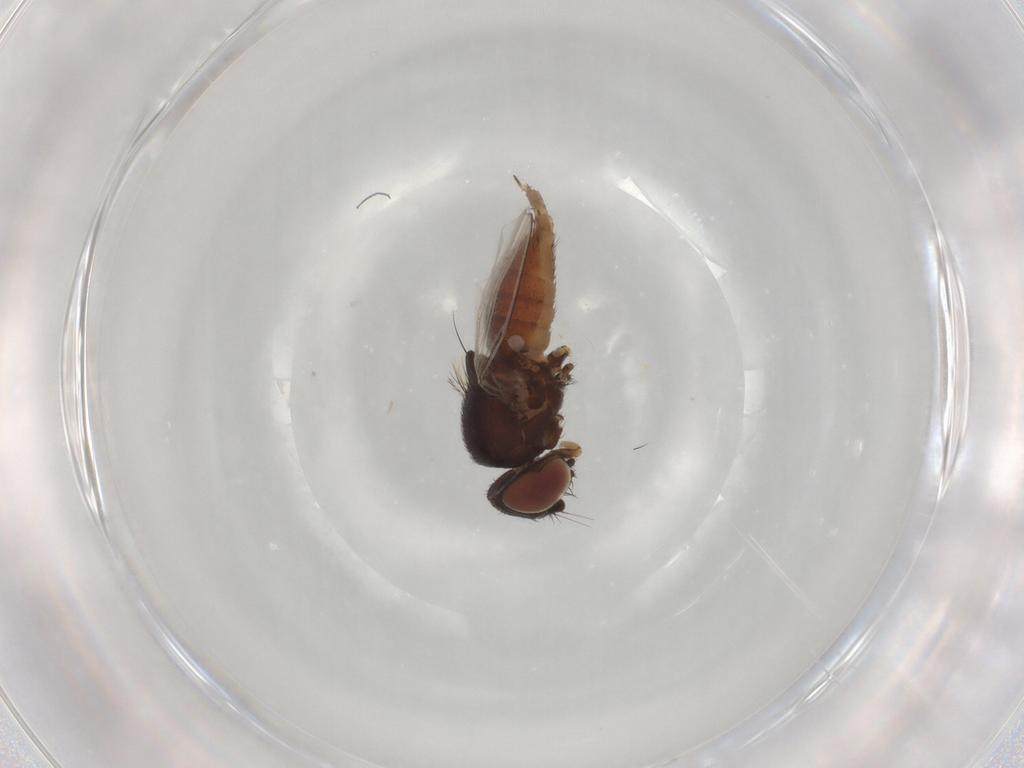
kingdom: Animalia
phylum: Arthropoda
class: Insecta
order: Diptera
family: Milichiidae
